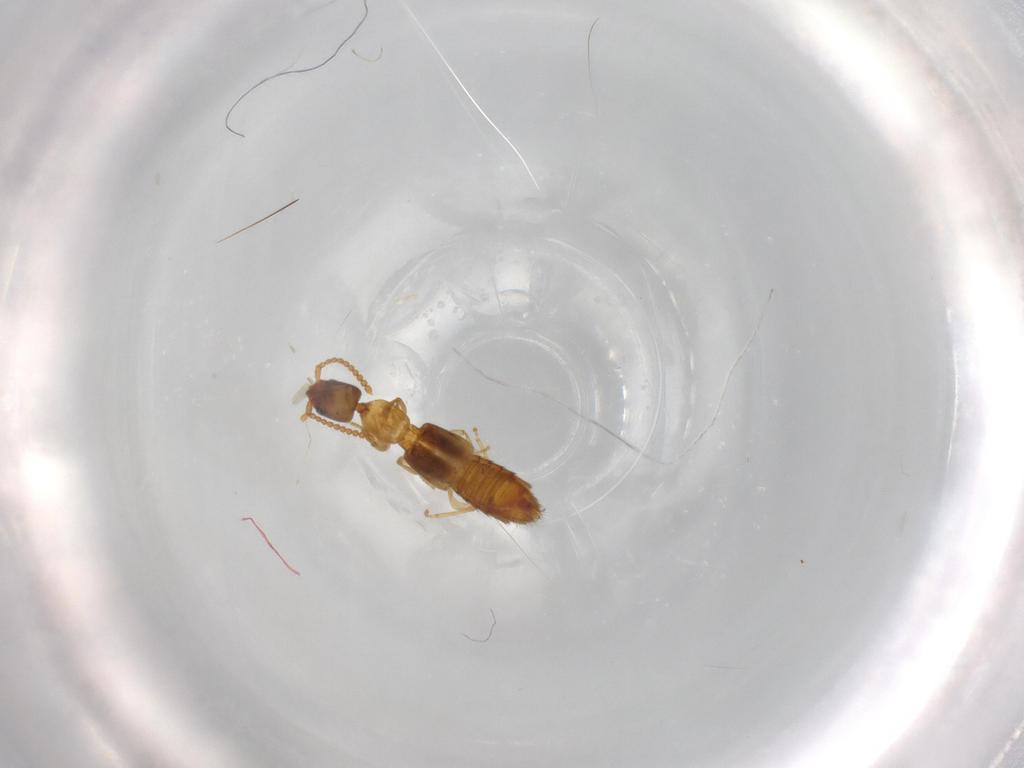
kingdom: Animalia
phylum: Arthropoda
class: Insecta
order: Coleoptera
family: Staphylinidae
